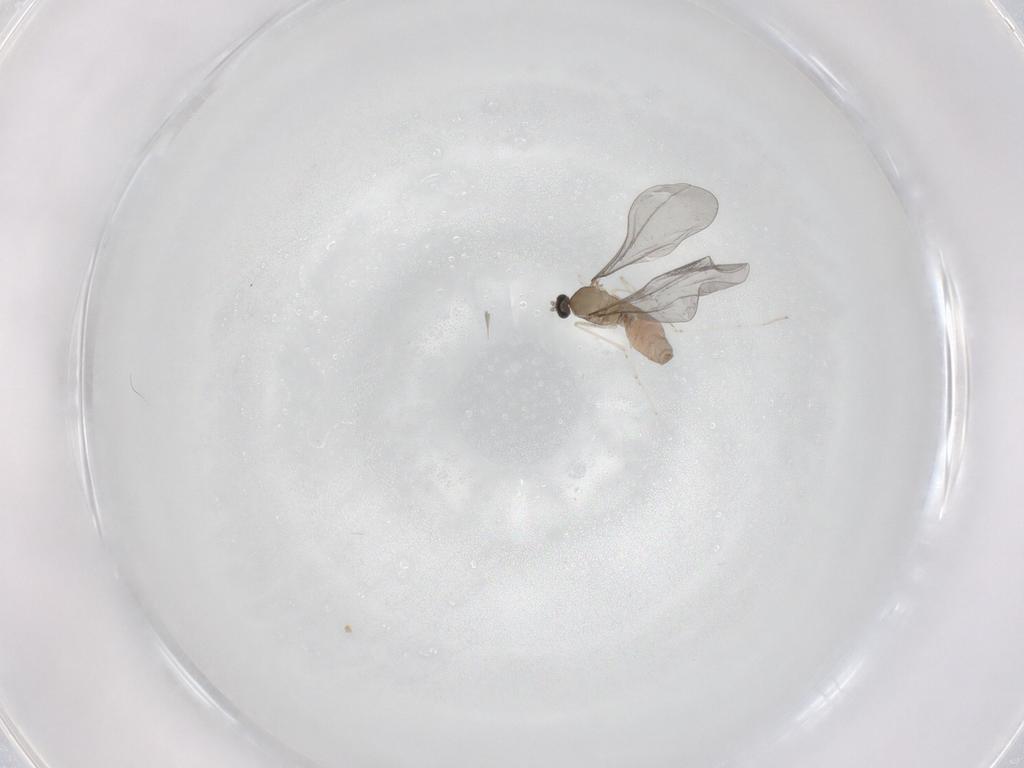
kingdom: Animalia
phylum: Arthropoda
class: Insecta
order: Diptera
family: Cecidomyiidae
